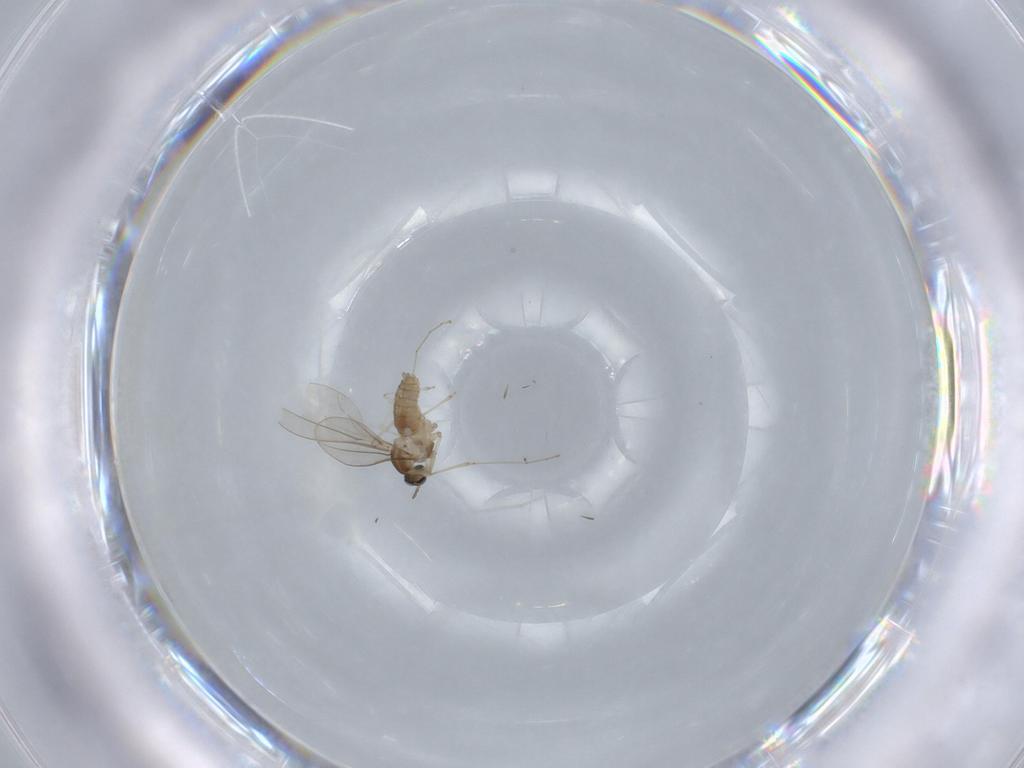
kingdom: Animalia
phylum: Arthropoda
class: Insecta
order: Diptera
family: Cecidomyiidae
